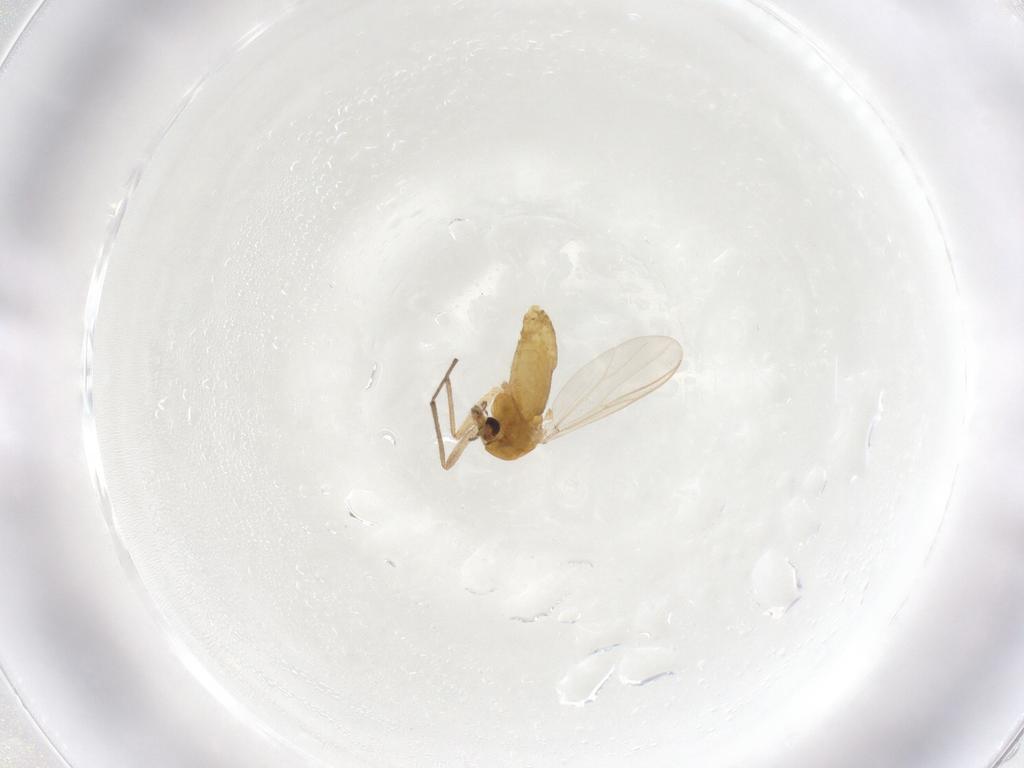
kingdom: Animalia
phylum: Arthropoda
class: Insecta
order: Diptera
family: Chironomidae
